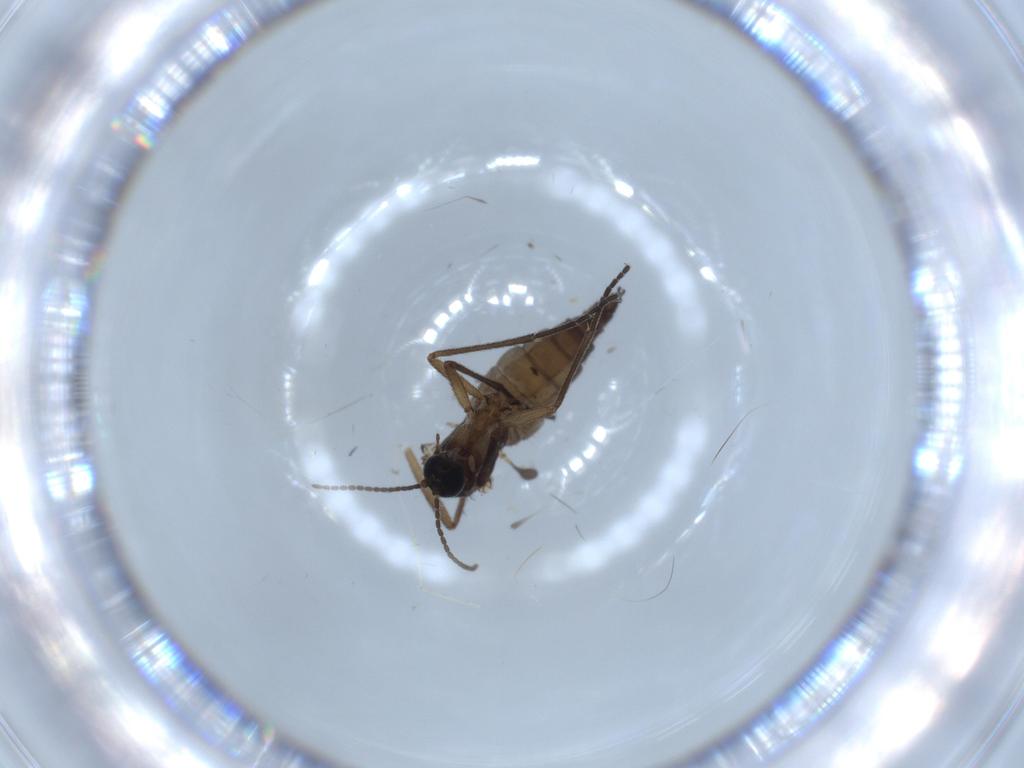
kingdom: Animalia
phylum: Arthropoda
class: Insecta
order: Diptera
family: Sciaridae
